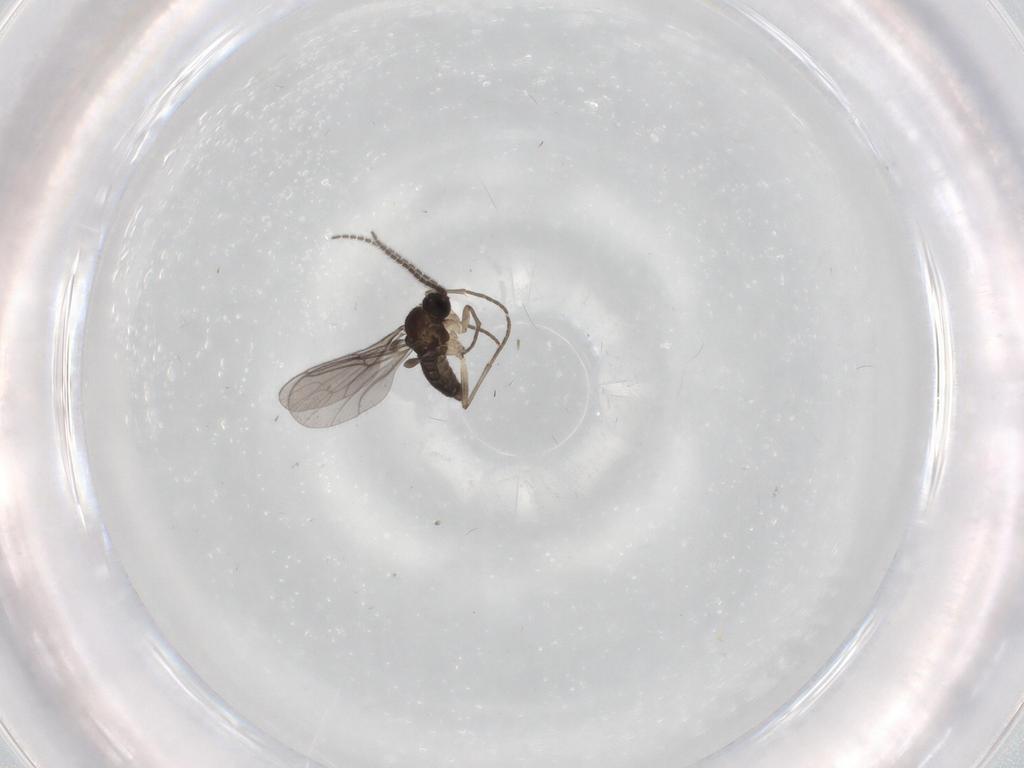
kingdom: Animalia
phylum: Arthropoda
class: Insecta
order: Diptera
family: Sciaridae
